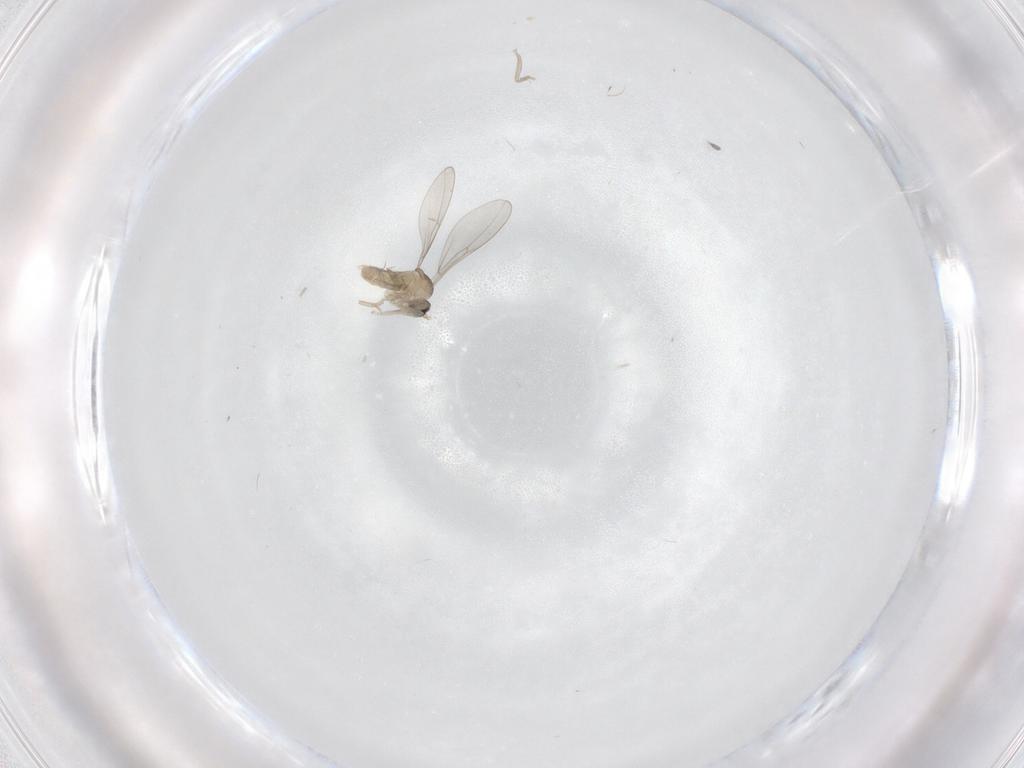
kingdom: Animalia
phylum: Arthropoda
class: Insecta
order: Diptera
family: Cecidomyiidae
